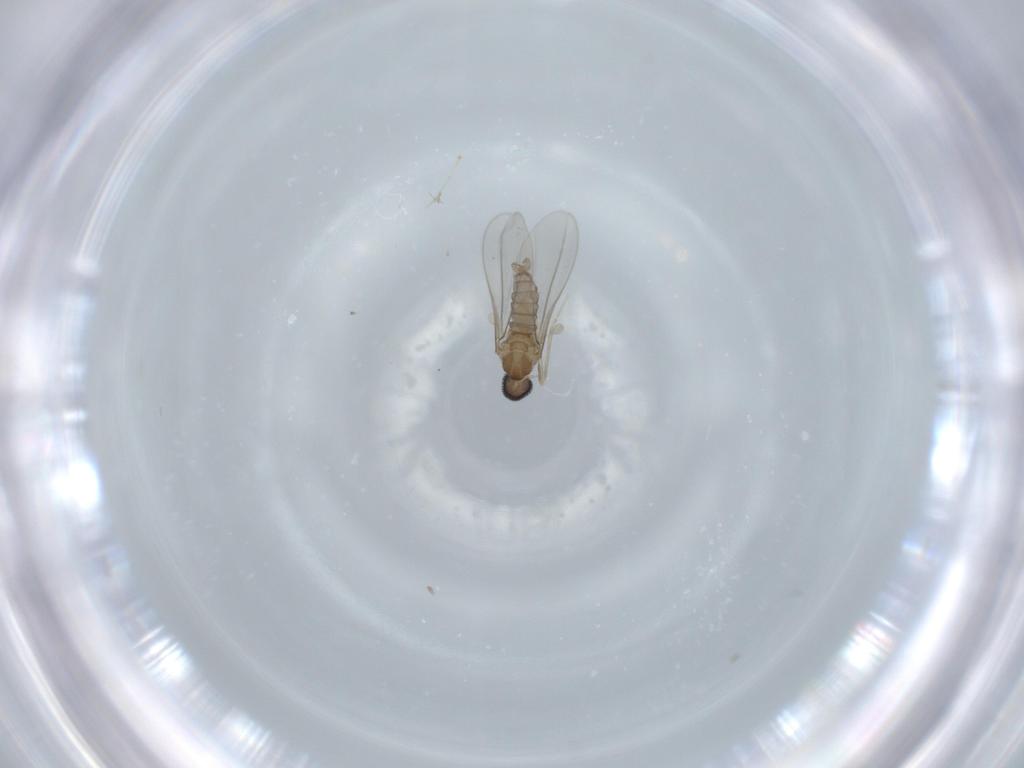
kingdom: Animalia
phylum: Arthropoda
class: Insecta
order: Diptera
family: Cecidomyiidae
